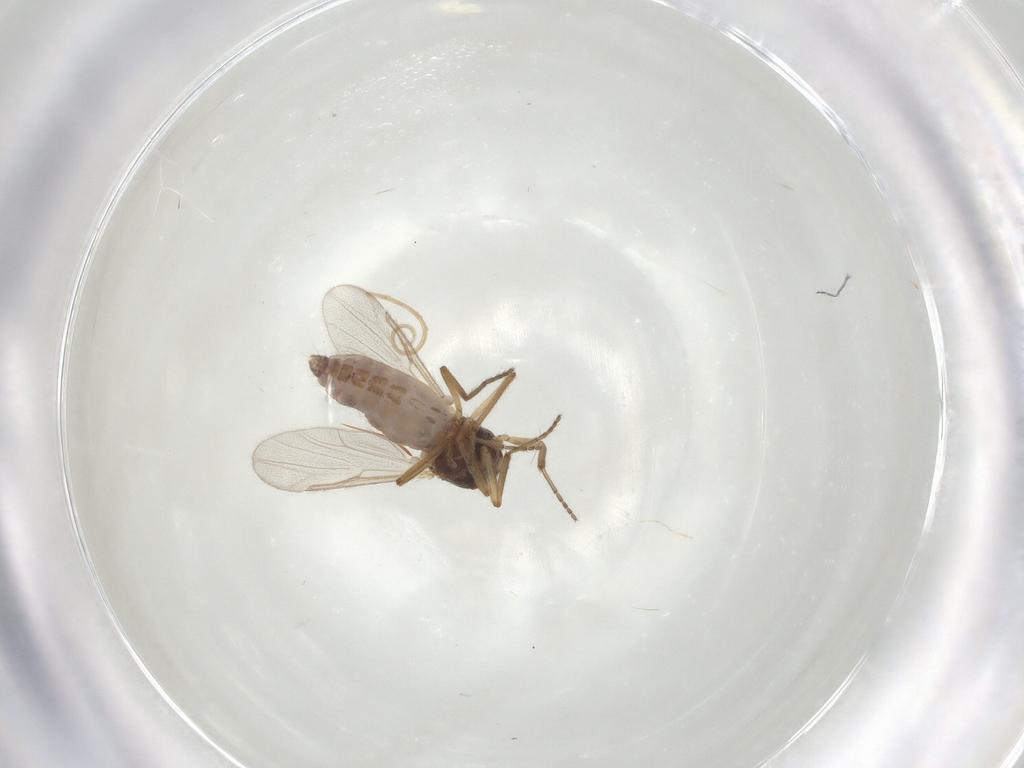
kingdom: Animalia
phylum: Arthropoda
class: Insecta
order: Diptera
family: Ceratopogonidae
